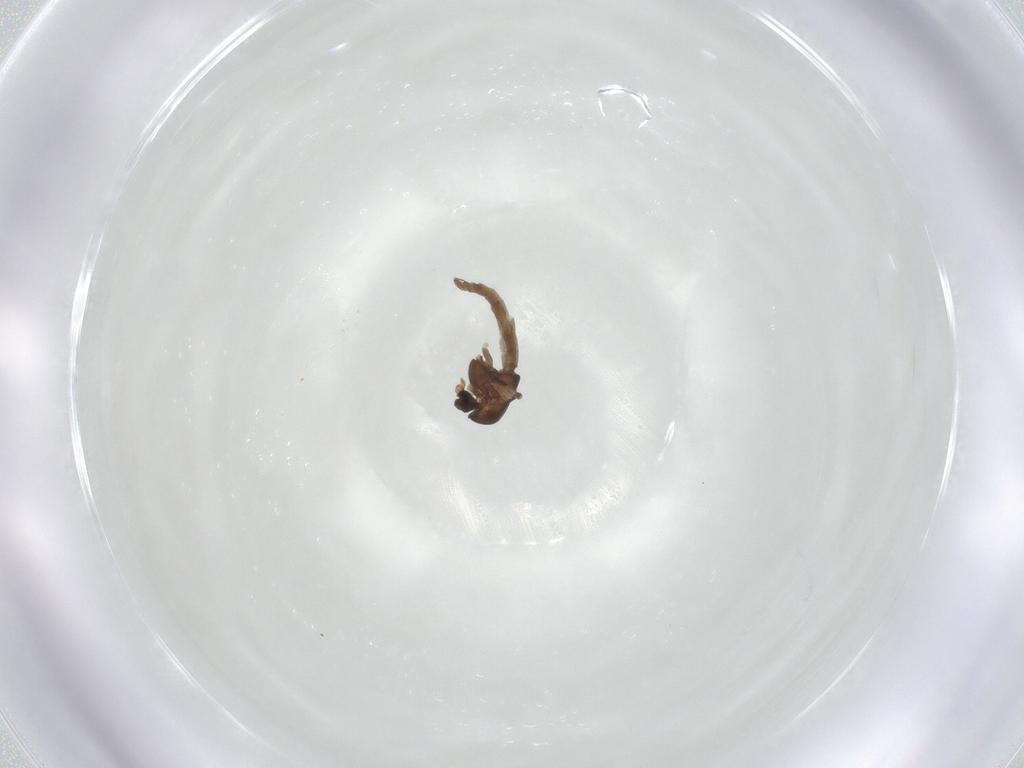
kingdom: Animalia
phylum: Arthropoda
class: Insecta
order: Diptera
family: Chironomidae
